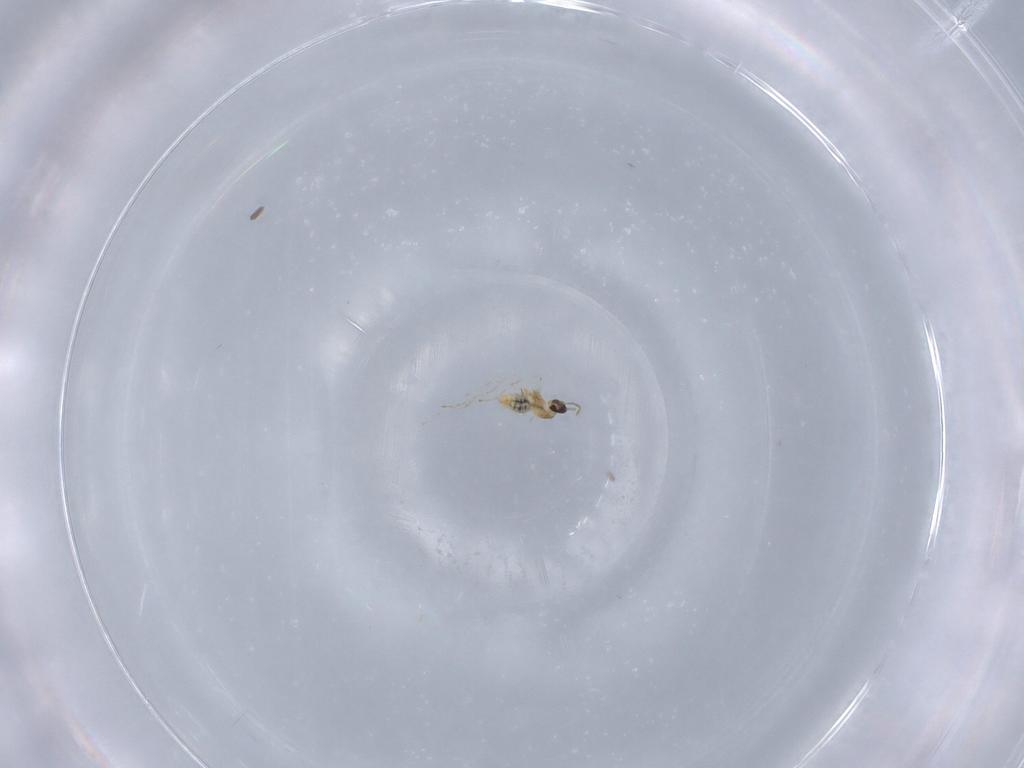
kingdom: Animalia
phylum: Arthropoda
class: Insecta
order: Diptera
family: Cecidomyiidae
